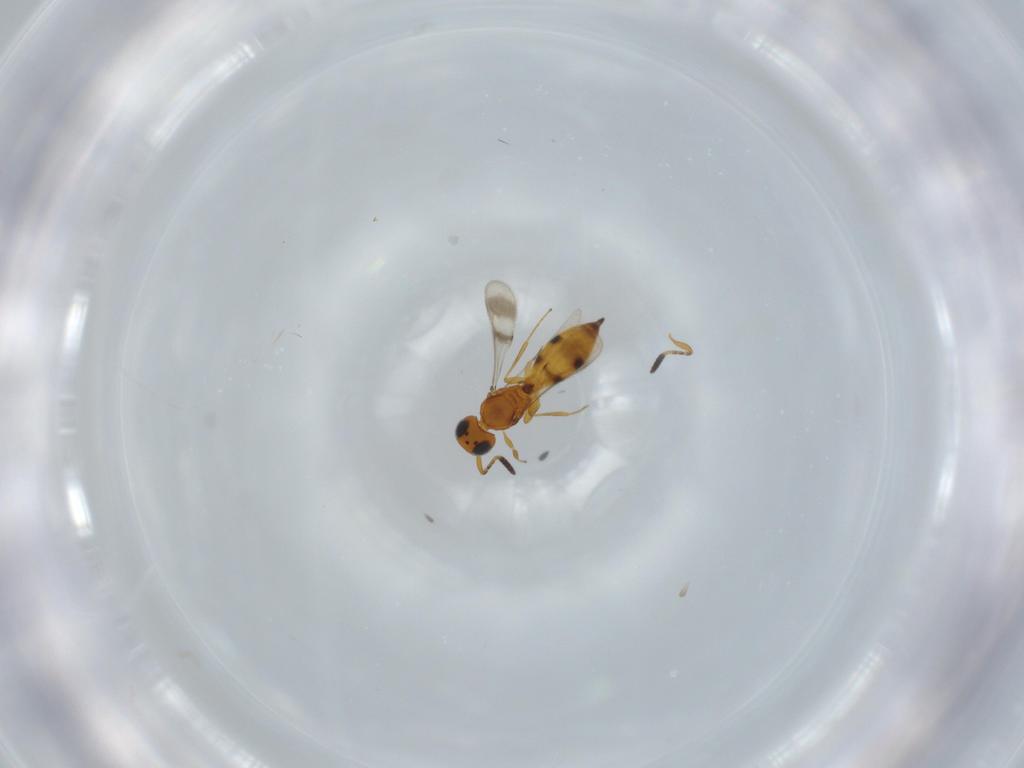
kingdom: Animalia
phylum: Arthropoda
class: Insecta
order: Hymenoptera
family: Scelionidae
